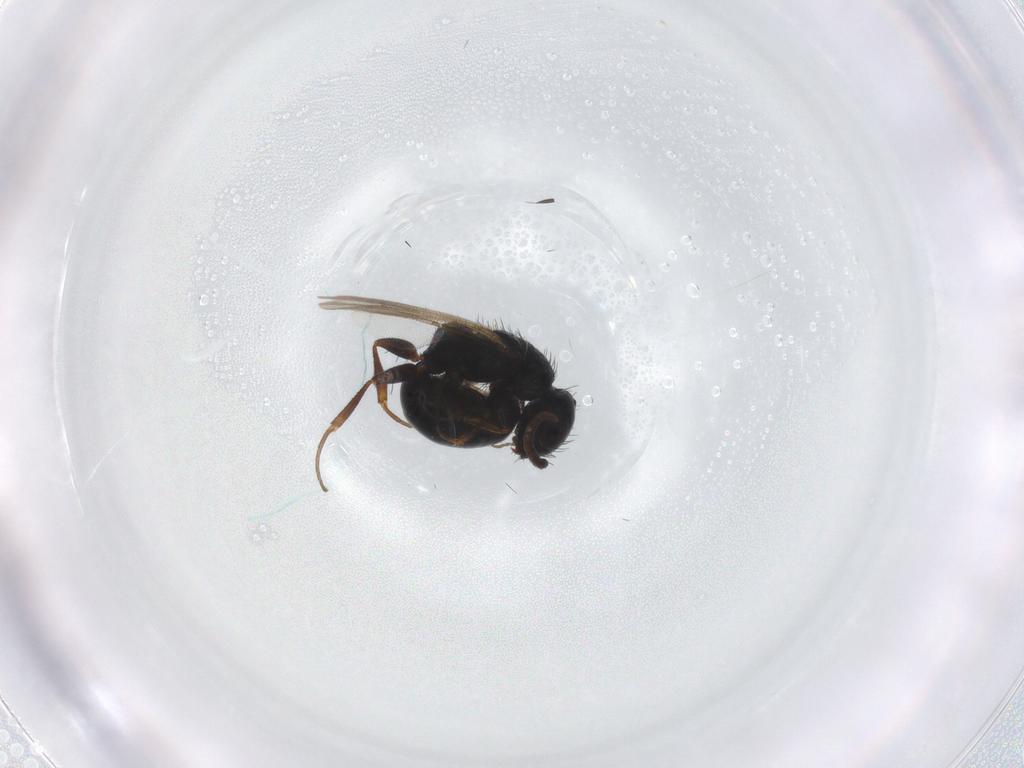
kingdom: Animalia
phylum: Arthropoda
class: Insecta
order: Hymenoptera
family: Bethylidae
